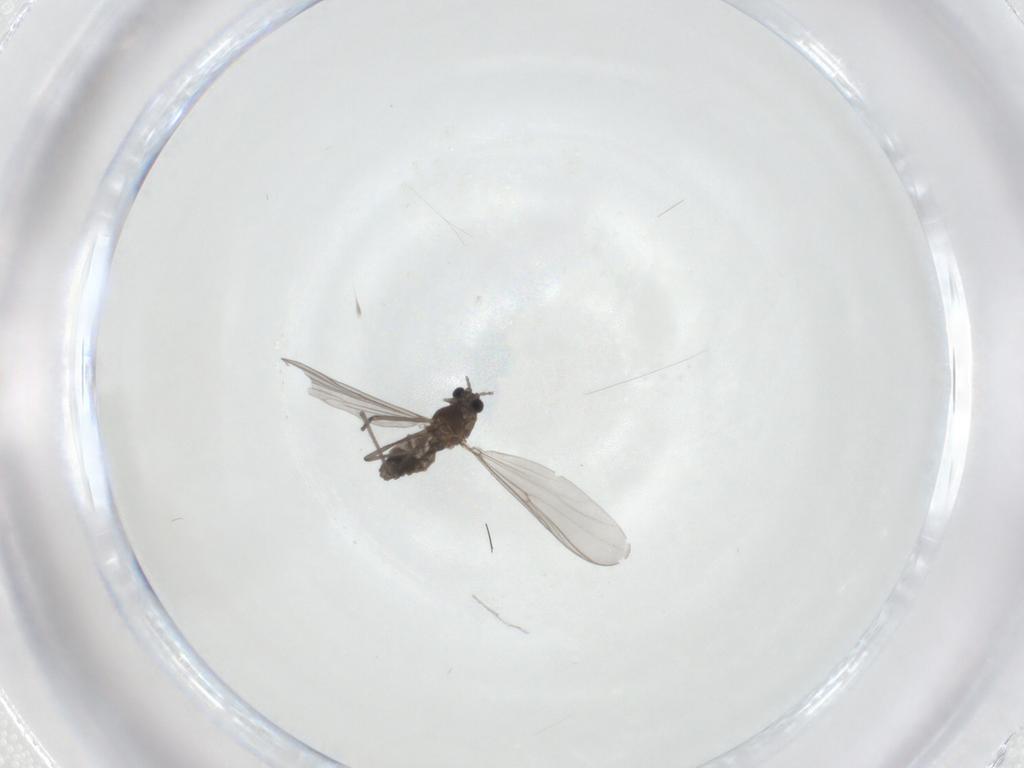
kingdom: Animalia
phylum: Arthropoda
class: Insecta
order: Diptera
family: Chironomidae
